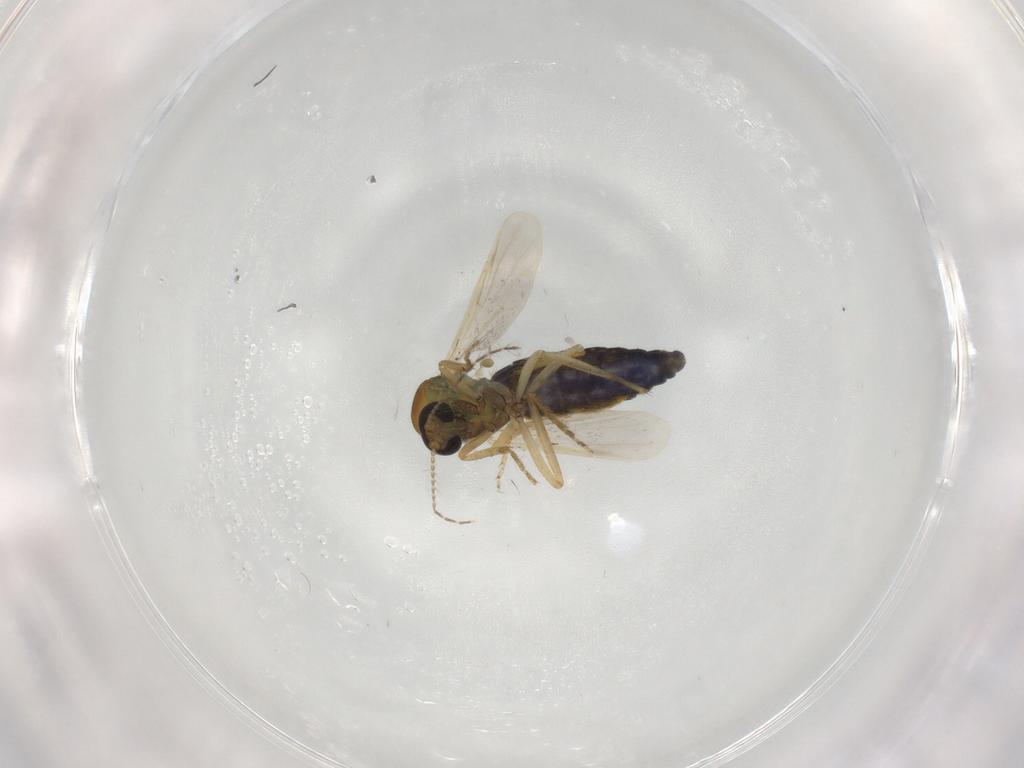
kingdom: Animalia
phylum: Arthropoda
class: Insecta
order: Diptera
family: Ceratopogonidae
